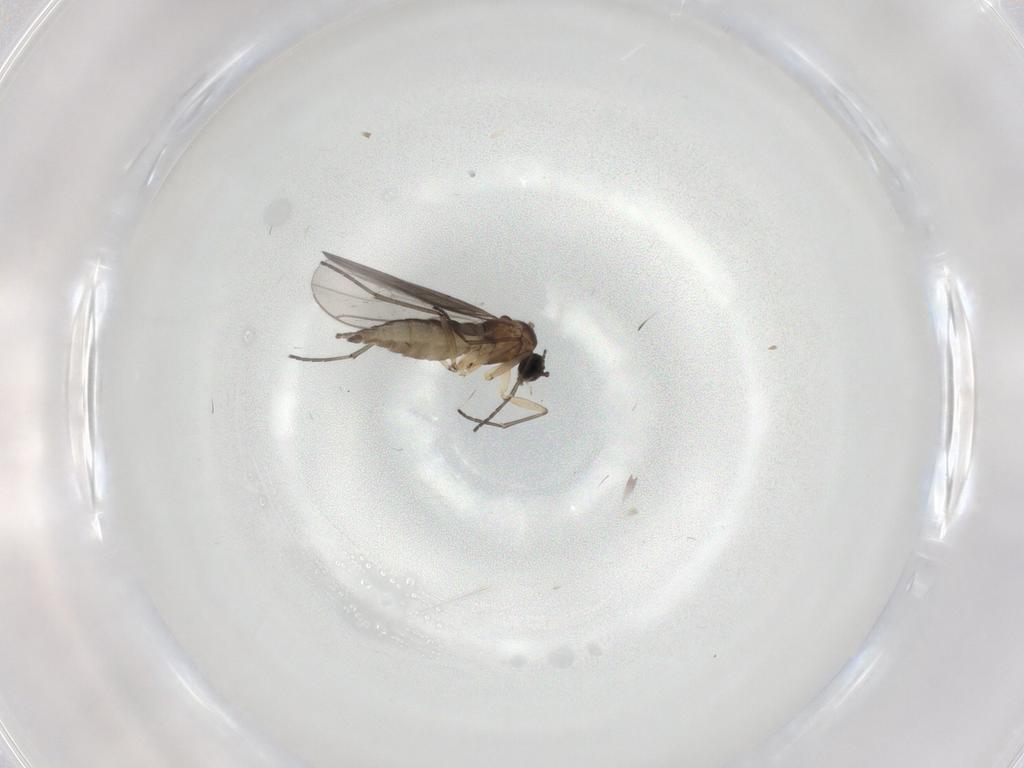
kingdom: Animalia
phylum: Arthropoda
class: Insecta
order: Diptera
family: Sciaridae
